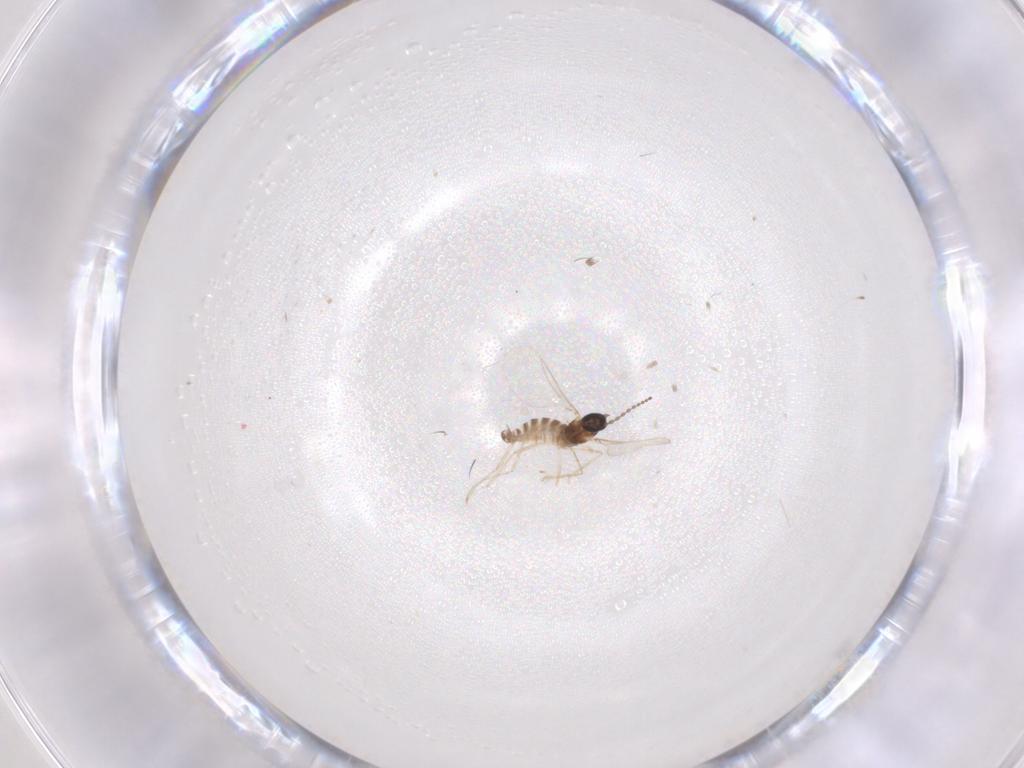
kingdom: Animalia
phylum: Arthropoda
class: Insecta
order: Diptera
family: Cecidomyiidae
